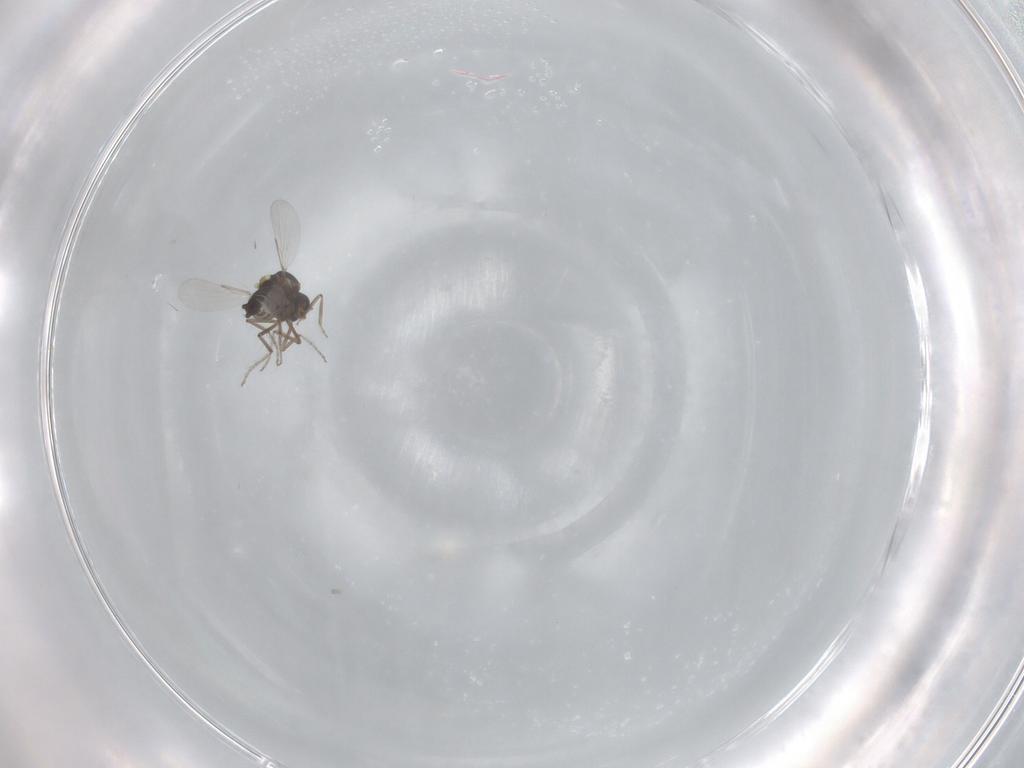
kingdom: Animalia
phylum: Arthropoda
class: Insecta
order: Diptera
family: Ceratopogonidae
